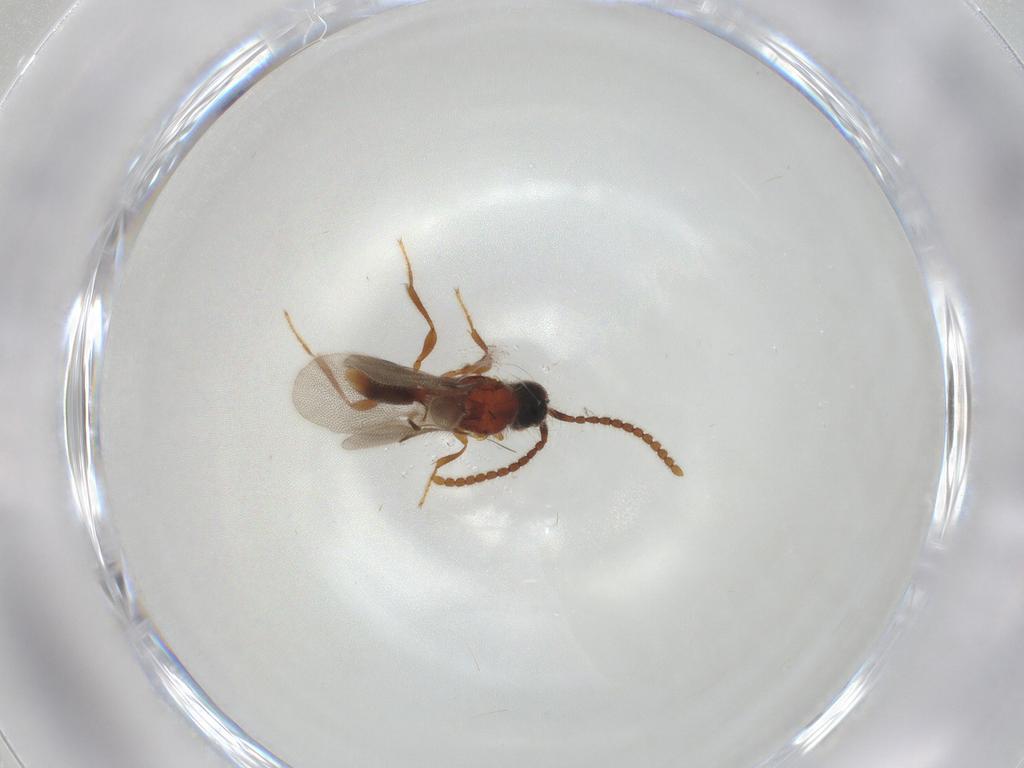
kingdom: Animalia
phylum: Arthropoda
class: Insecta
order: Hymenoptera
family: Diapriidae
